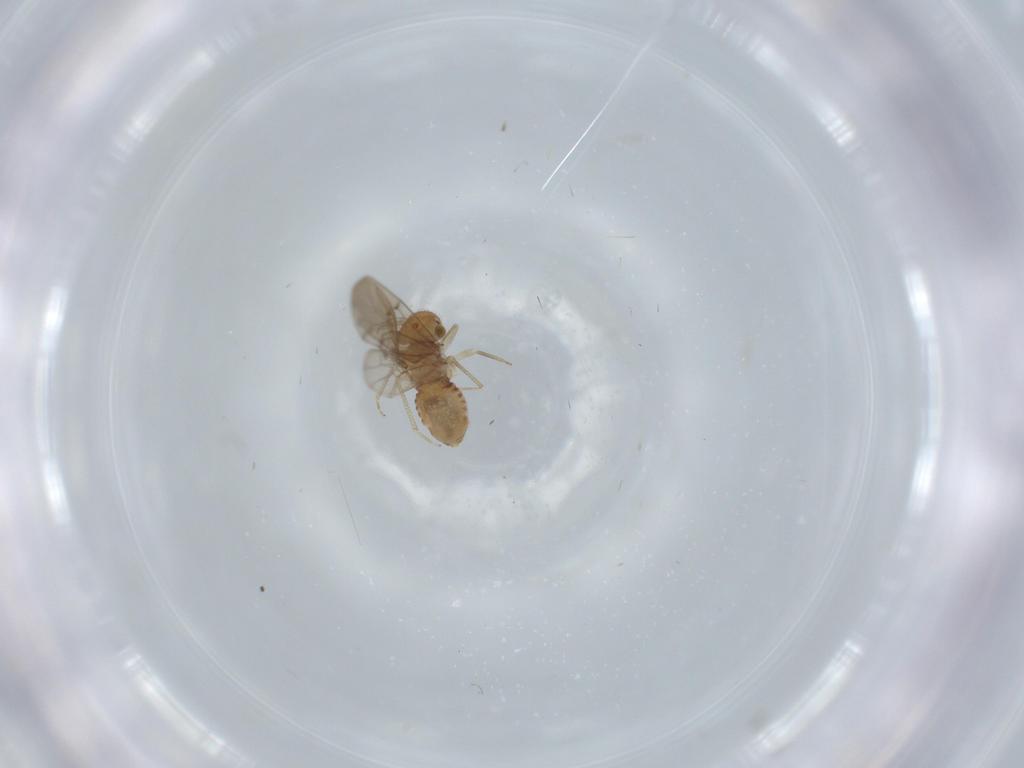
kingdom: Animalia
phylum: Arthropoda
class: Insecta
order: Psocodea
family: Ectopsocidae
